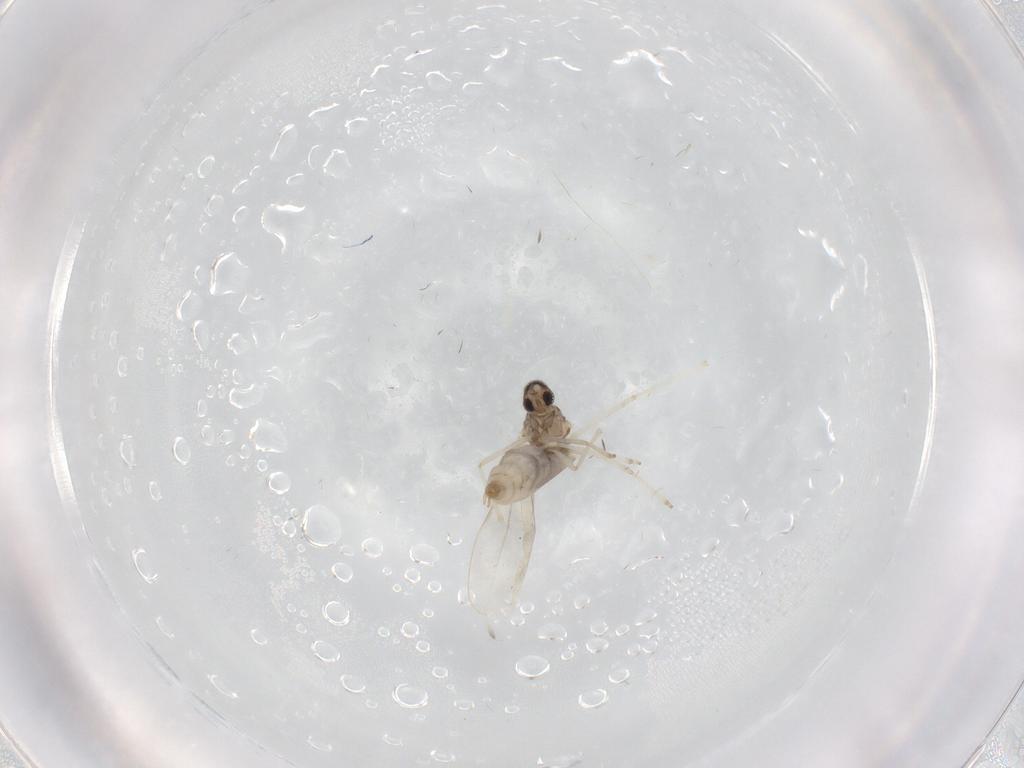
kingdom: Animalia
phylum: Arthropoda
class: Insecta
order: Diptera
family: Cecidomyiidae
